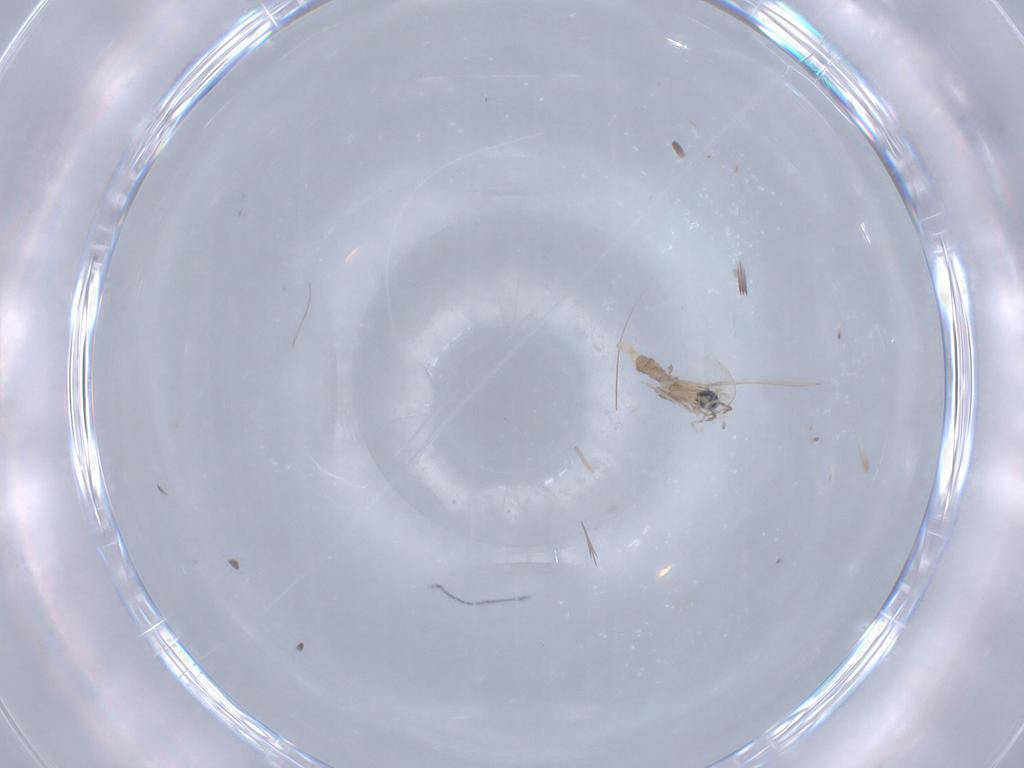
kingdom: Animalia
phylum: Arthropoda
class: Insecta
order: Diptera
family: Cecidomyiidae
